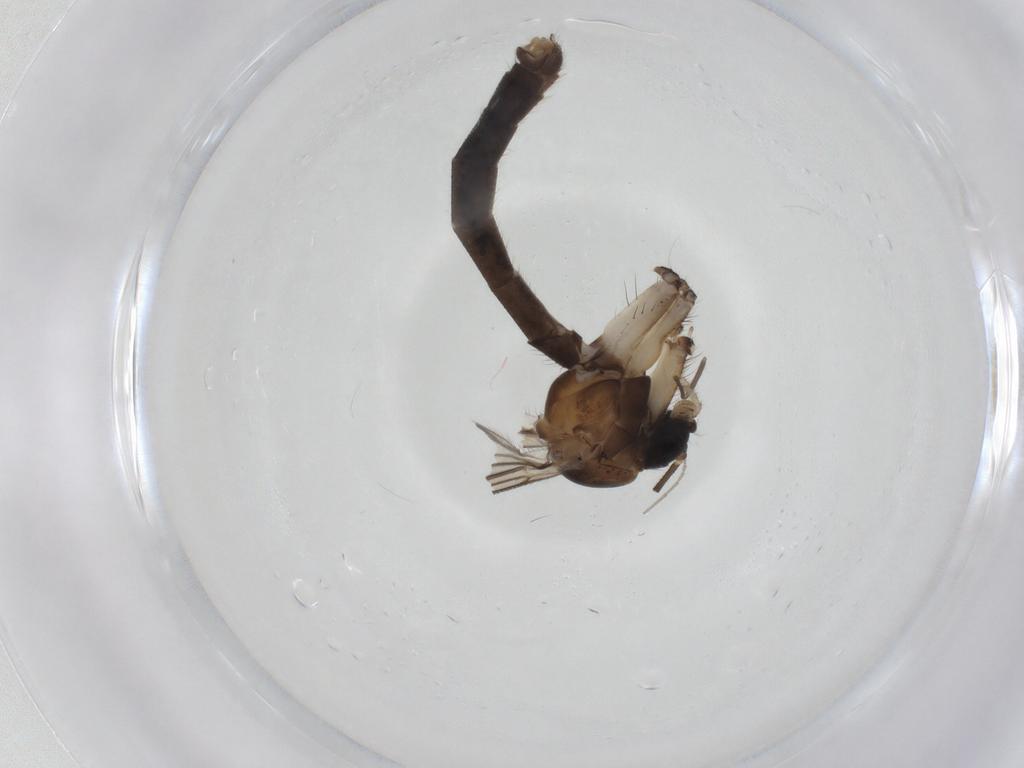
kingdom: Animalia
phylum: Arthropoda
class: Insecta
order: Diptera
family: Mycetophilidae
